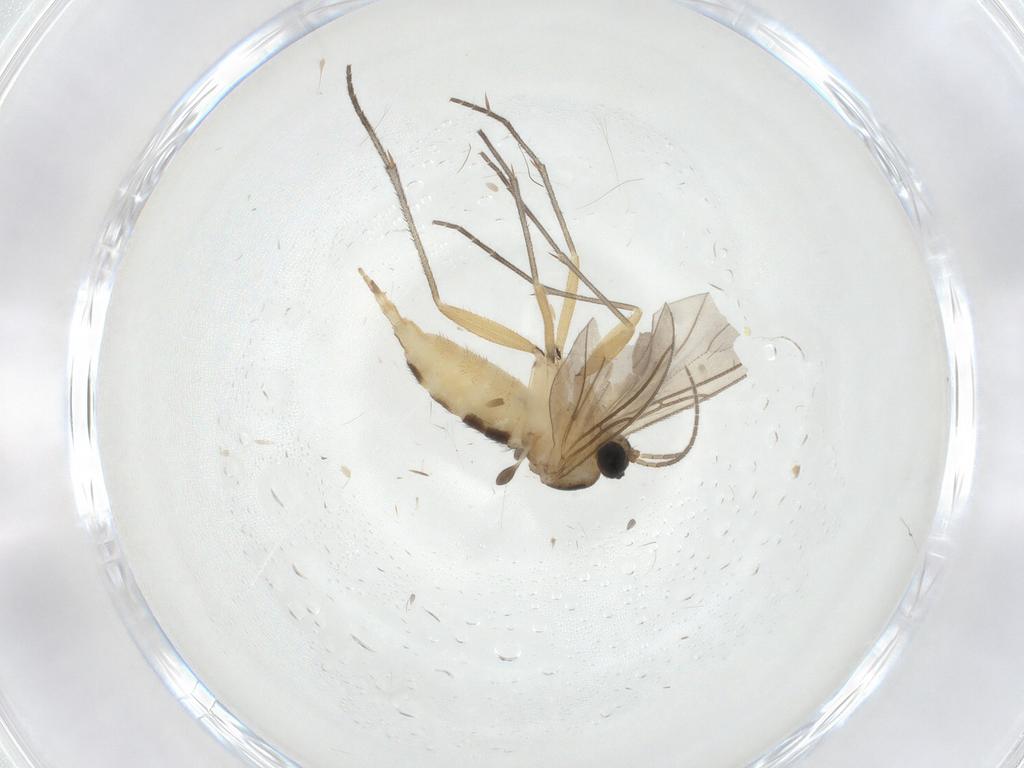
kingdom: Animalia
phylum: Arthropoda
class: Insecta
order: Diptera
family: Sciaridae
